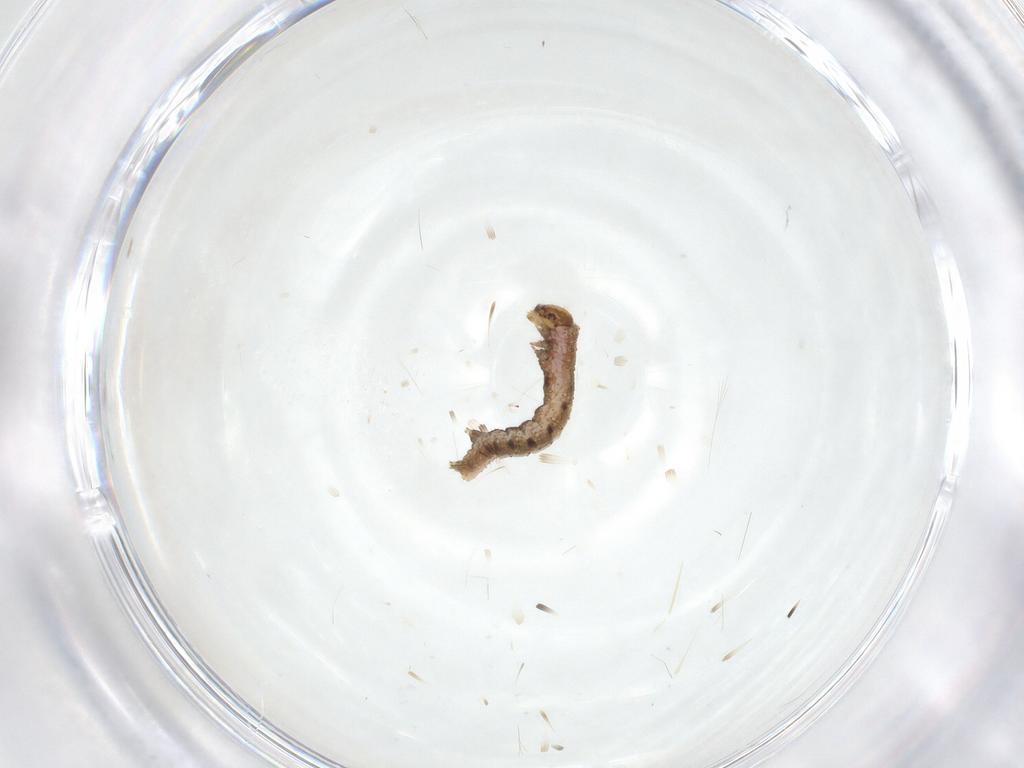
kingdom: Animalia
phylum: Arthropoda
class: Insecta
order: Lepidoptera
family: Geometridae
